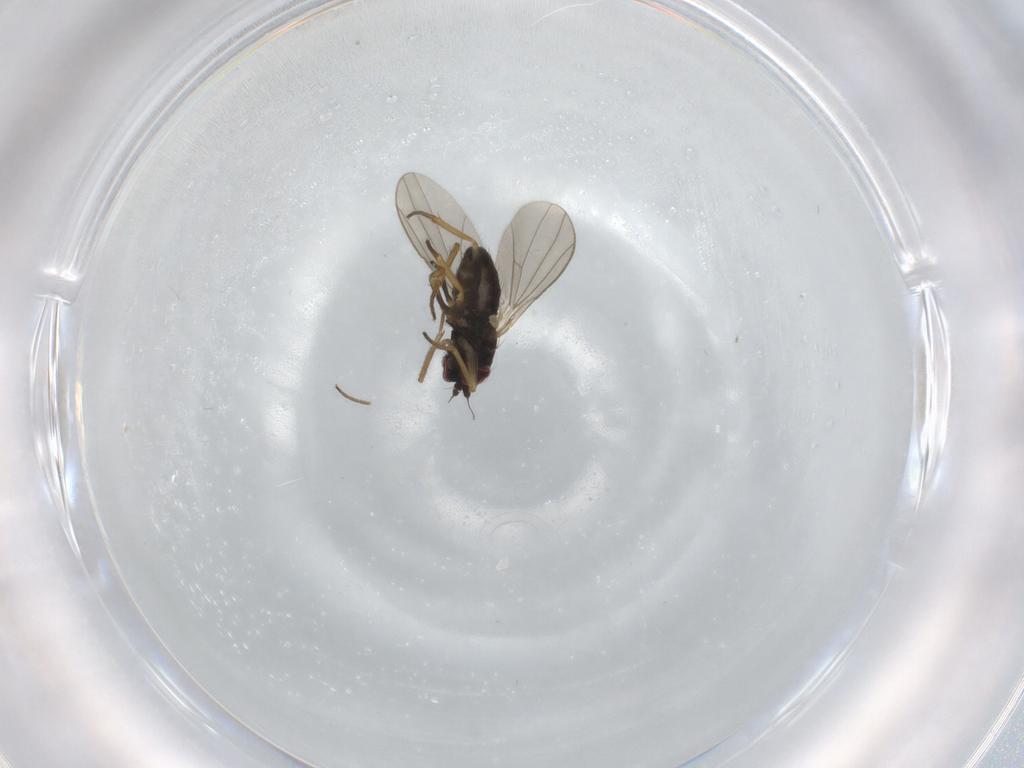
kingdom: Animalia
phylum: Arthropoda
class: Insecta
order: Diptera
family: Dolichopodidae
